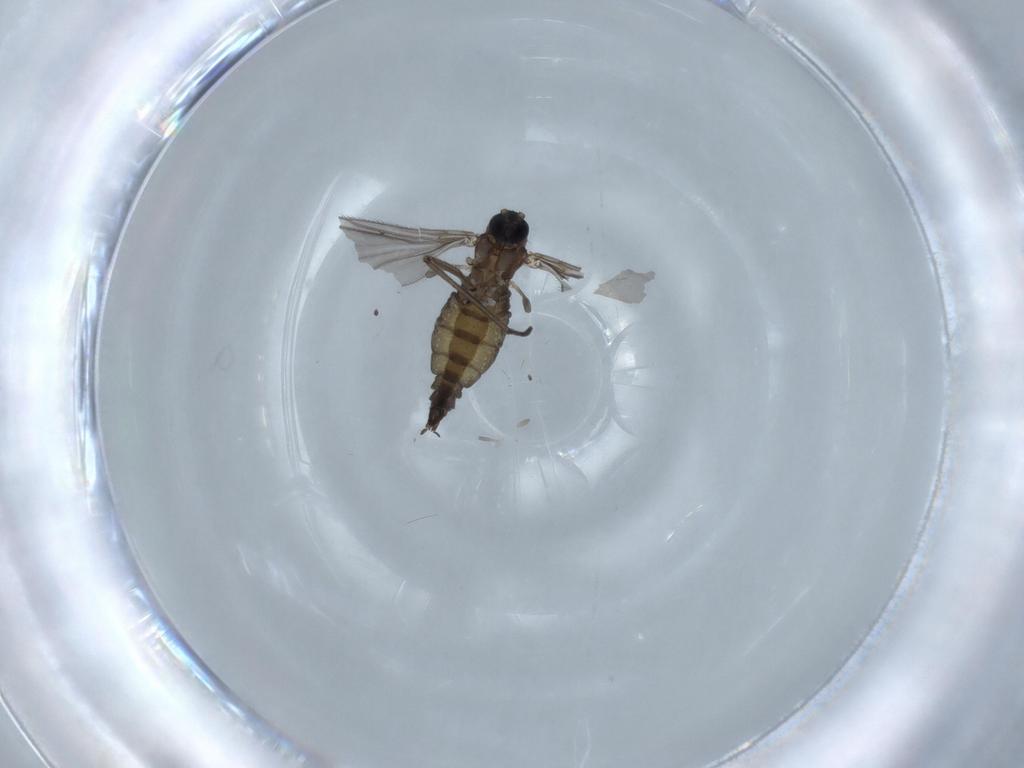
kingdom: Animalia
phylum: Arthropoda
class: Insecta
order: Diptera
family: Sciaridae
